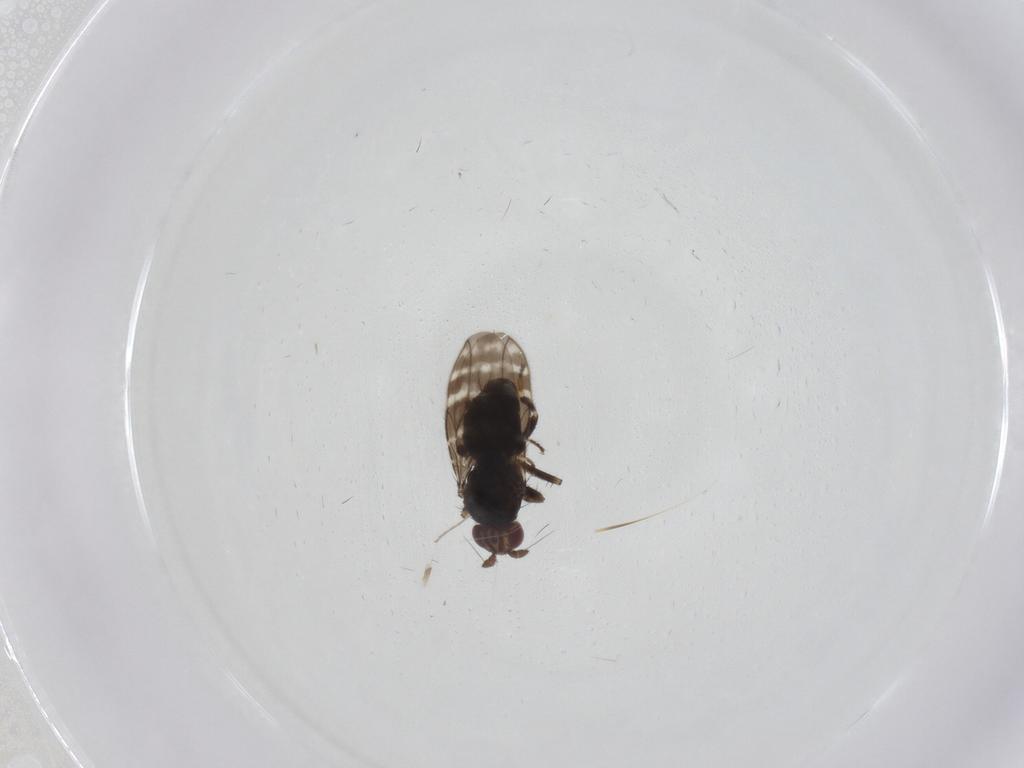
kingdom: Animalia
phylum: Arthropoda
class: Insecta
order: Diptera
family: Sphaeroceridae
